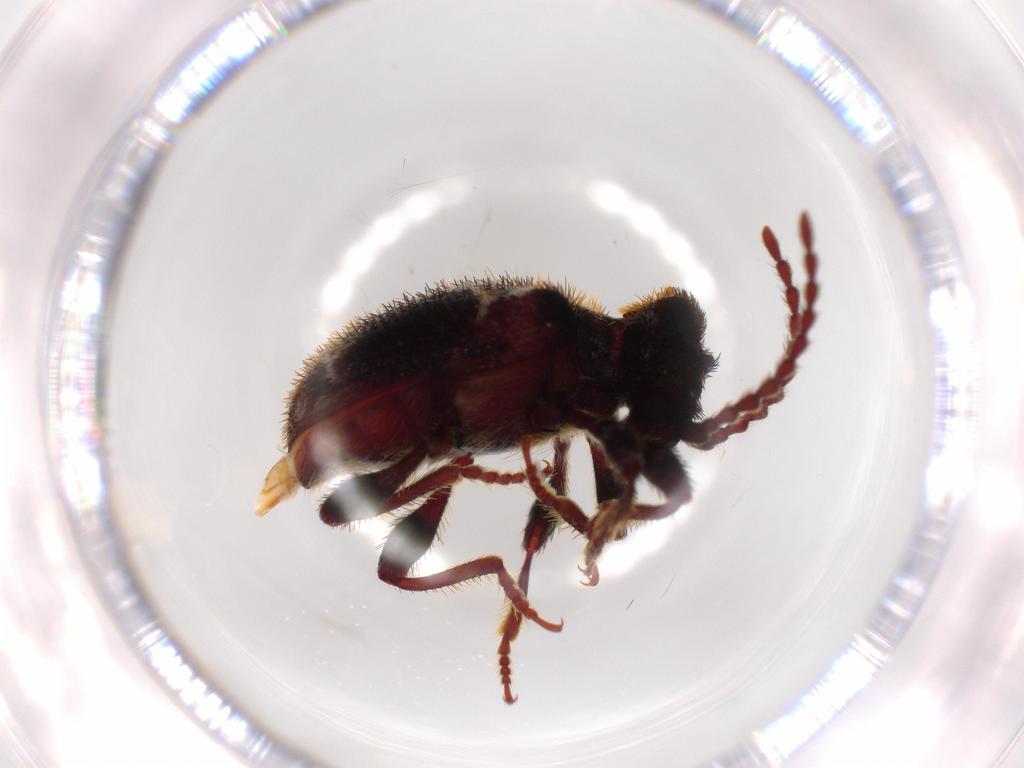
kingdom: Animalia
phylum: Arthropoda
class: Insecta
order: Coleoptera
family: Ptinidae
